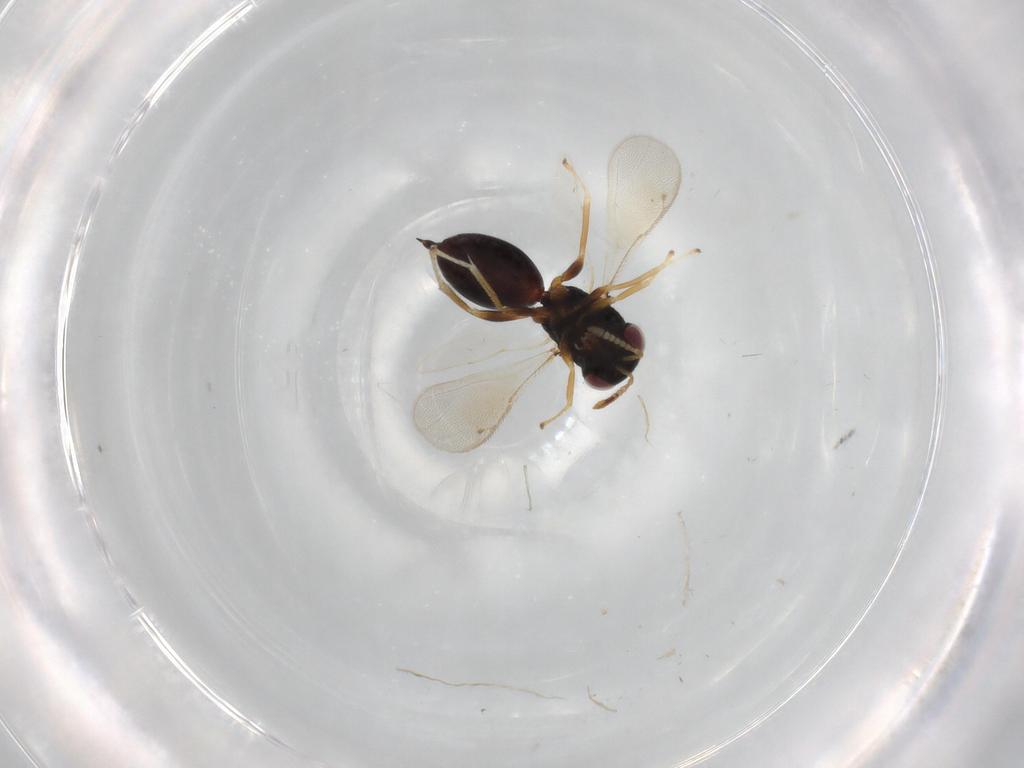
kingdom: Animalia
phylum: Arthropoda
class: Insecta
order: Hymenoptera
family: Eurytomidae
